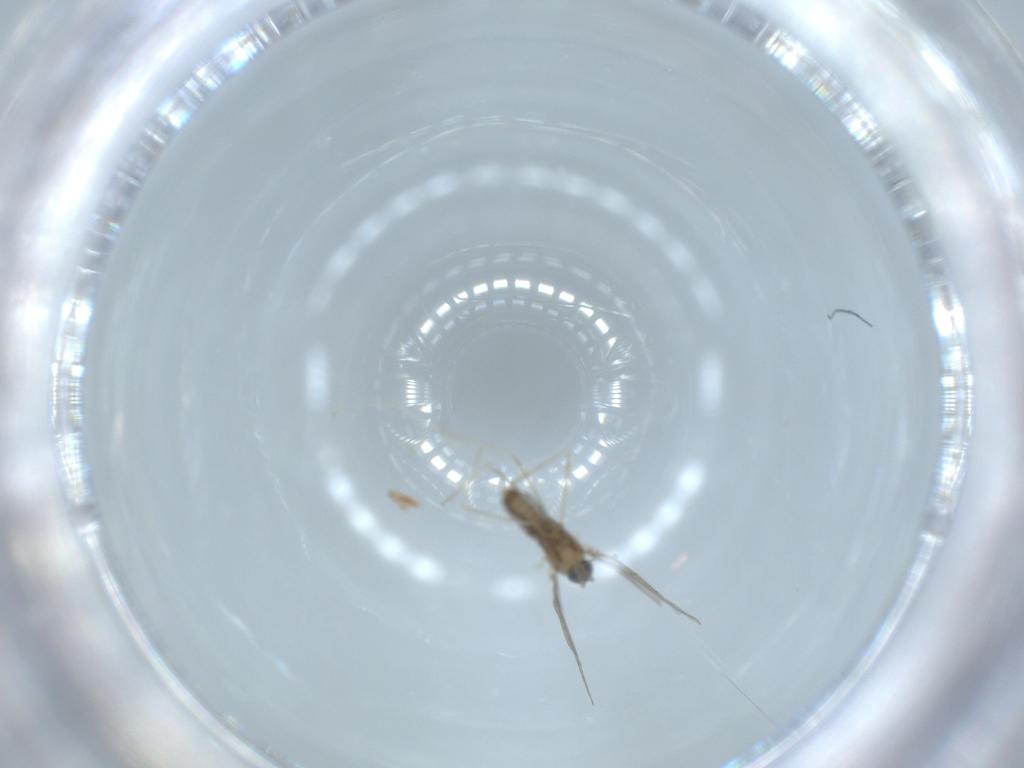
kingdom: Animalia
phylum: Arthropoda
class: Insecta
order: Diptera
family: Cecidomyiidae
